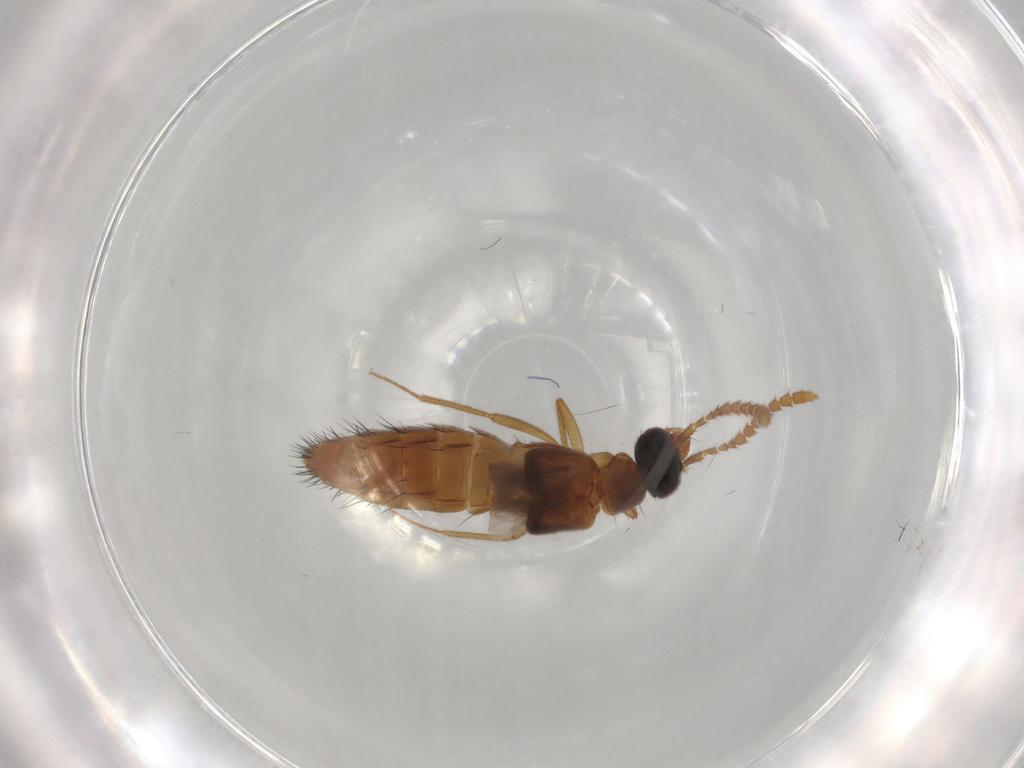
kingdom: Animalia
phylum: Arthropoda
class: Insecta
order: Coleoptera
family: Staphylinidae
